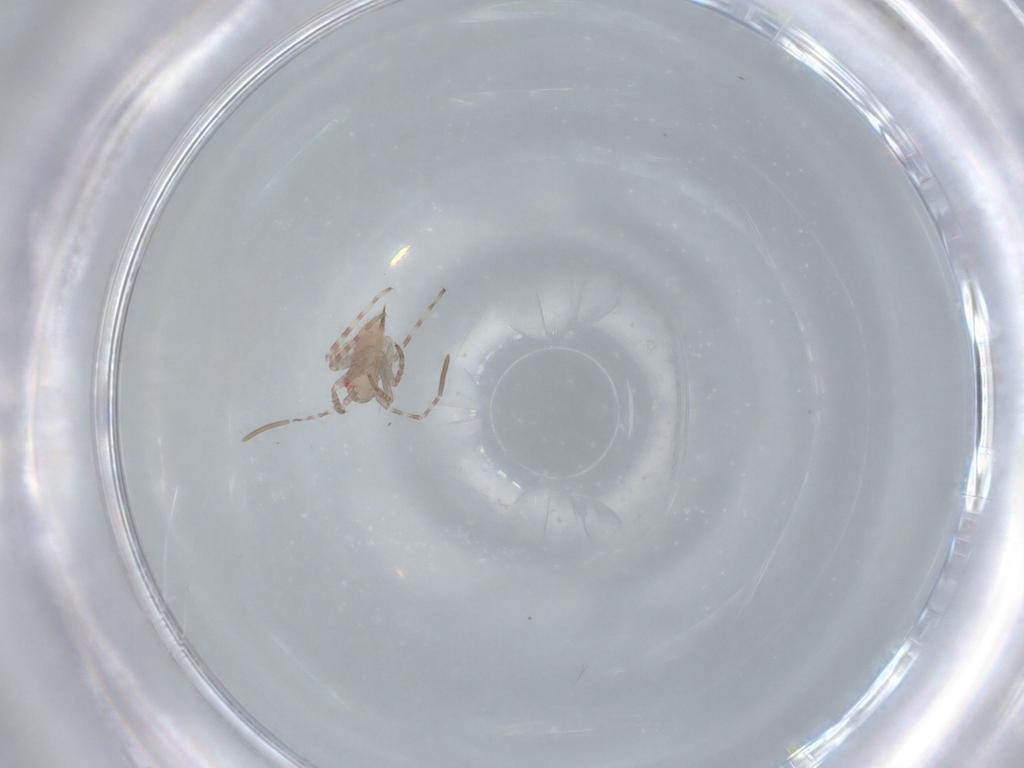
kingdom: Animalia
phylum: Arthropoda
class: Insecta
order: Hemiptera
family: Miridae
